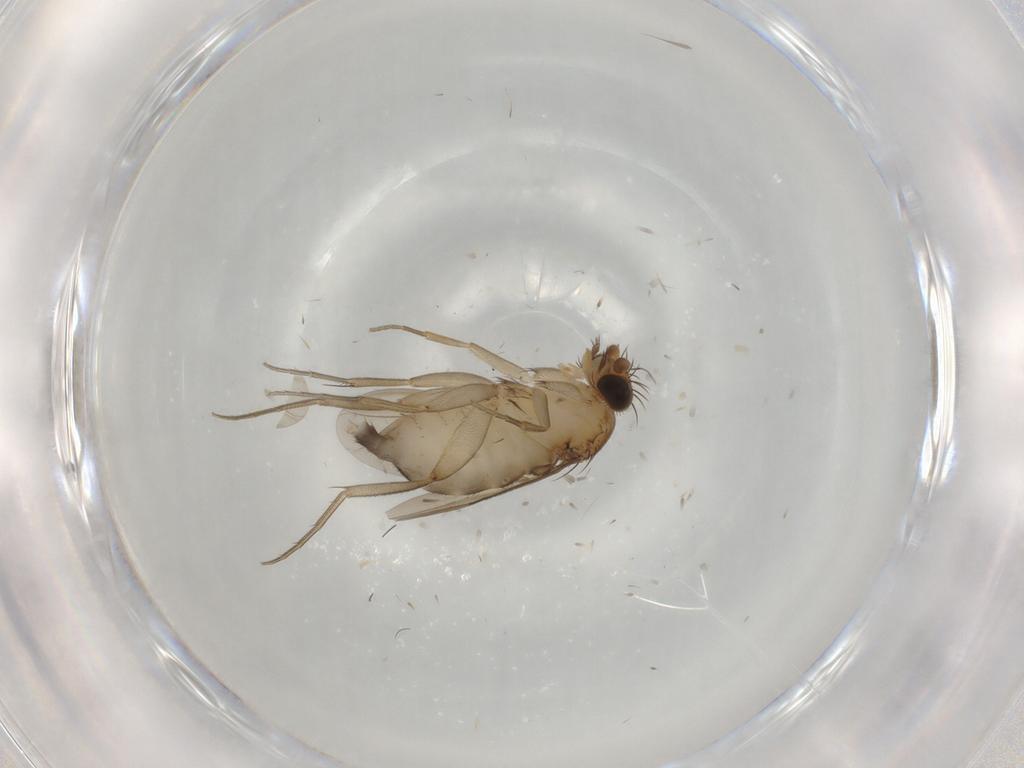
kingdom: Animalia
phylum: Arthropoda
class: Insecta
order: Diptera
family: Phoridae
